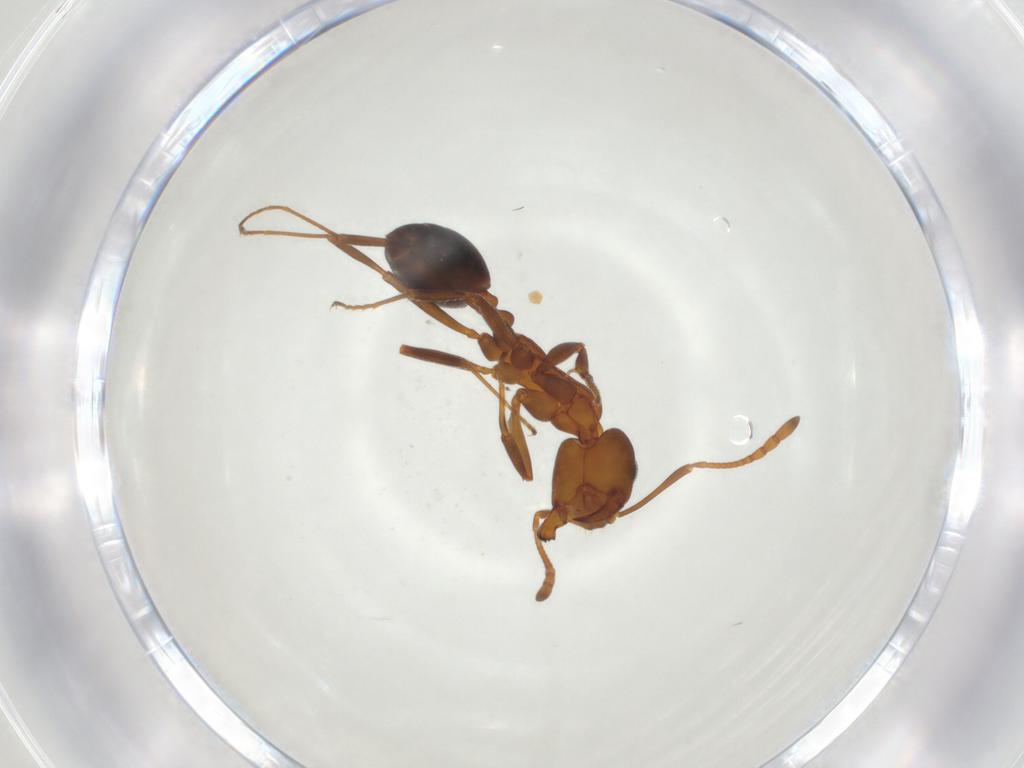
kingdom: Animalia
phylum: Arthropoda
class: Insecta
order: Hymenoptera
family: Formicidae
